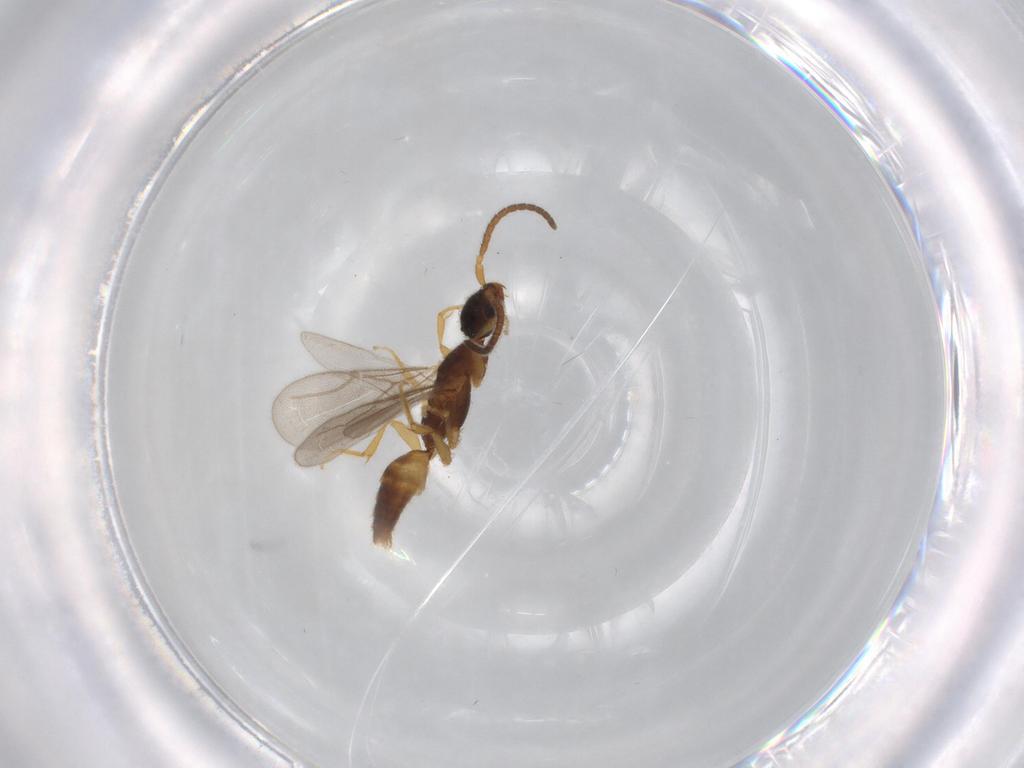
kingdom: Animalia
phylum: Arthropoda
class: Insecta
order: Hymenoptera
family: Bethylidae
